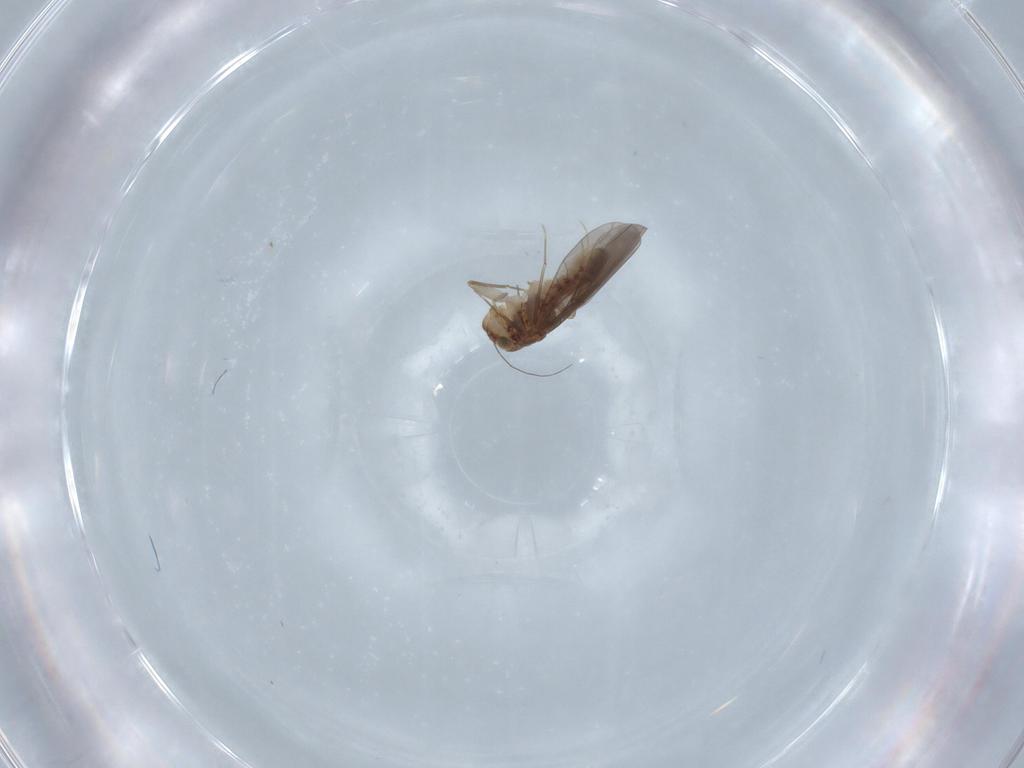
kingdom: Animalia
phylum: Arthropoda
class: Insecta
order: Psocodea
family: Lepidopsocidae
